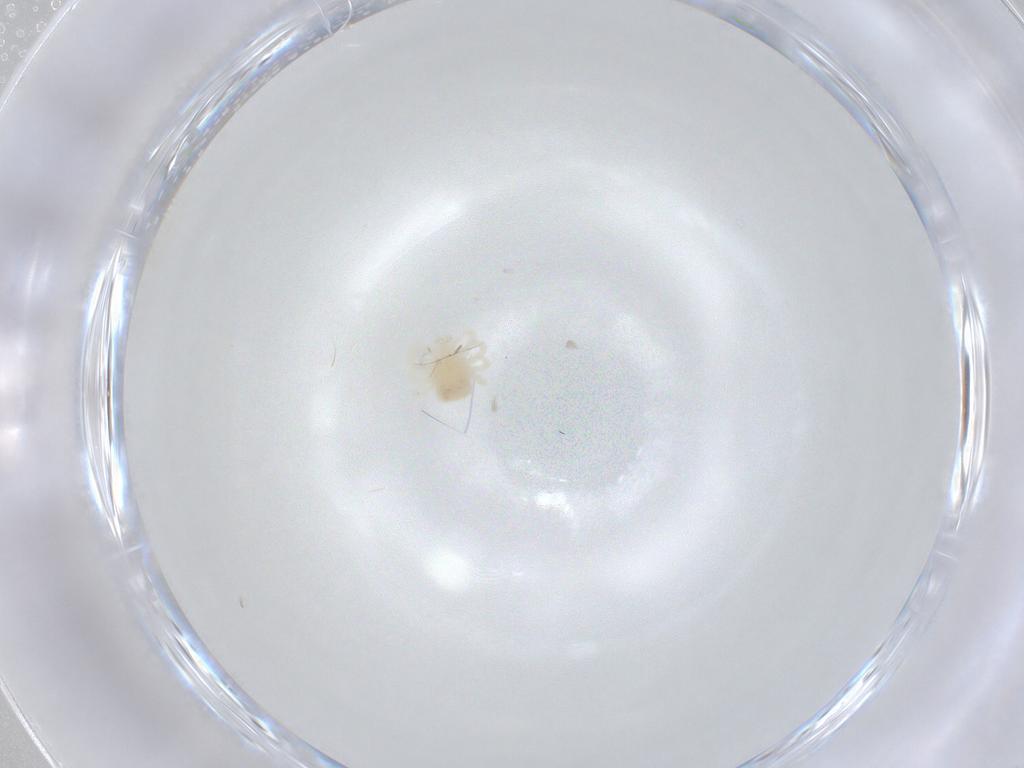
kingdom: Animalia
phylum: Arthropoda
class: Arachnida
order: Trombidiformes
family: Anystidae
